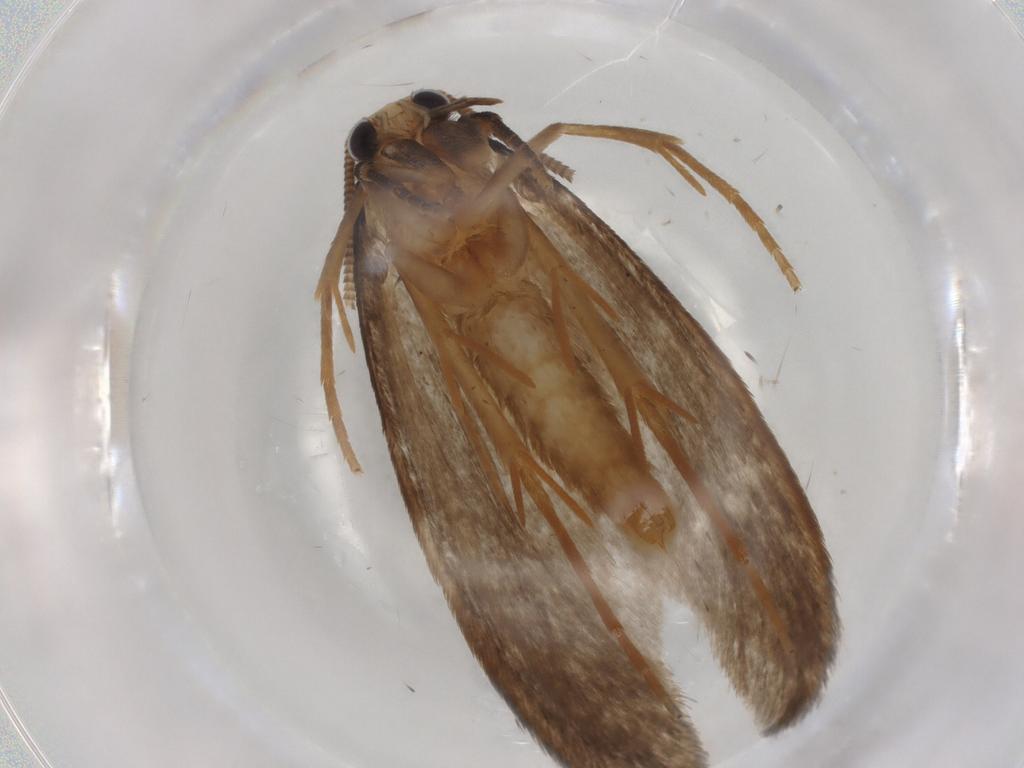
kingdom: Animalia
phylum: Arthropoda
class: Insecta
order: Lepidoptera
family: Tineidae
